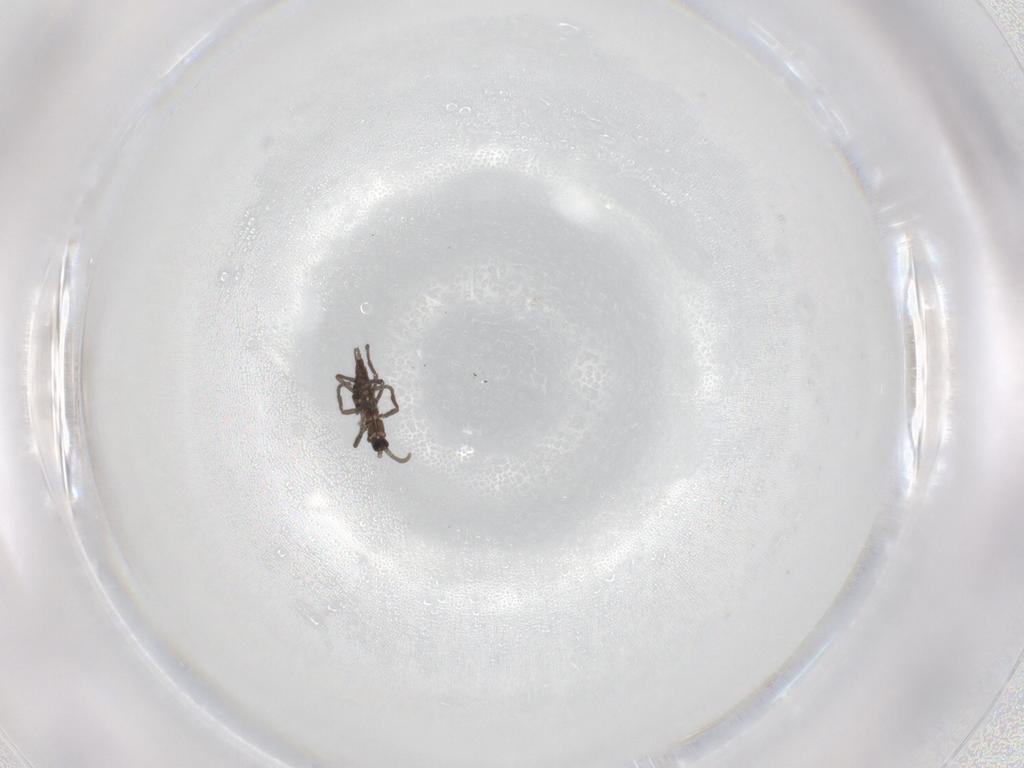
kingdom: Animalia
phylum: Arthropoda
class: Insecta
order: Diptera
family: Sciaridae
